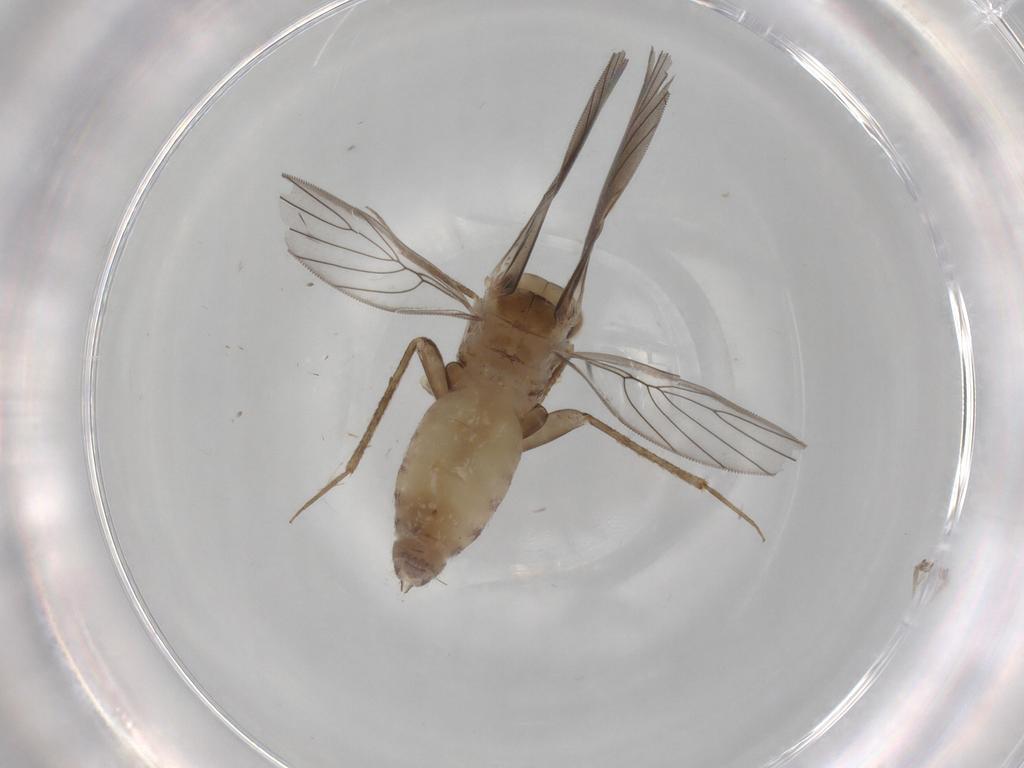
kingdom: Animalia
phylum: Arthropoda
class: Insecta
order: Psocodea
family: Lepidopsocidae
